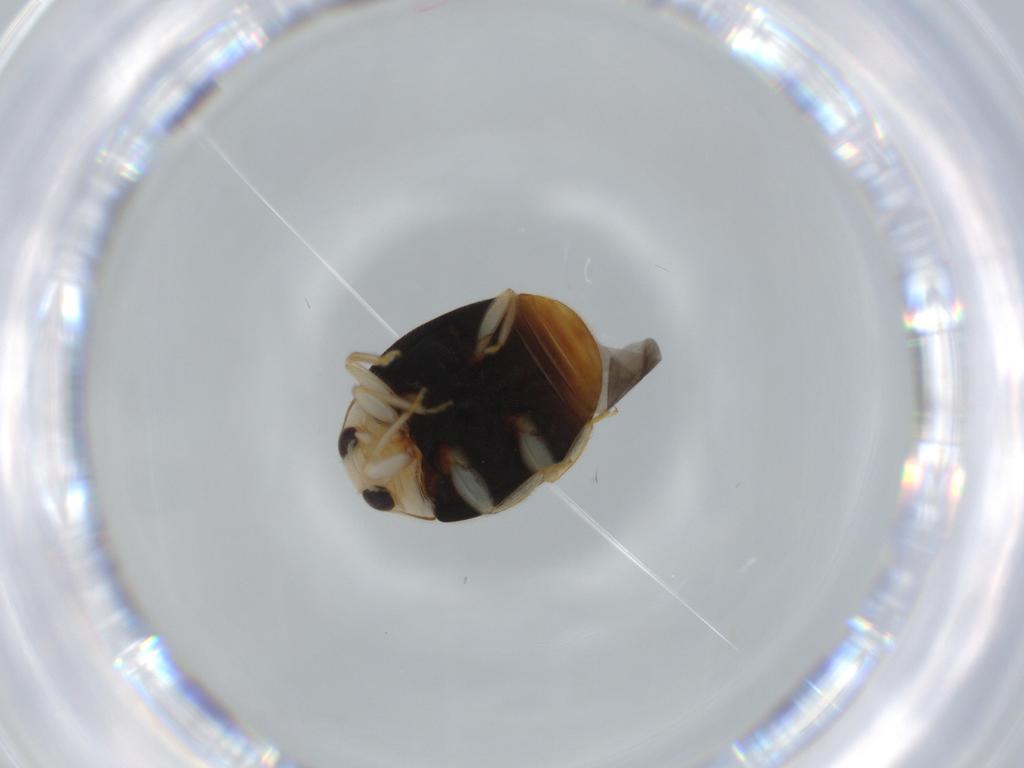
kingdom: Animalia
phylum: Arthropoda
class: Insecta
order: Coleoptera
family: Coccinellidae
